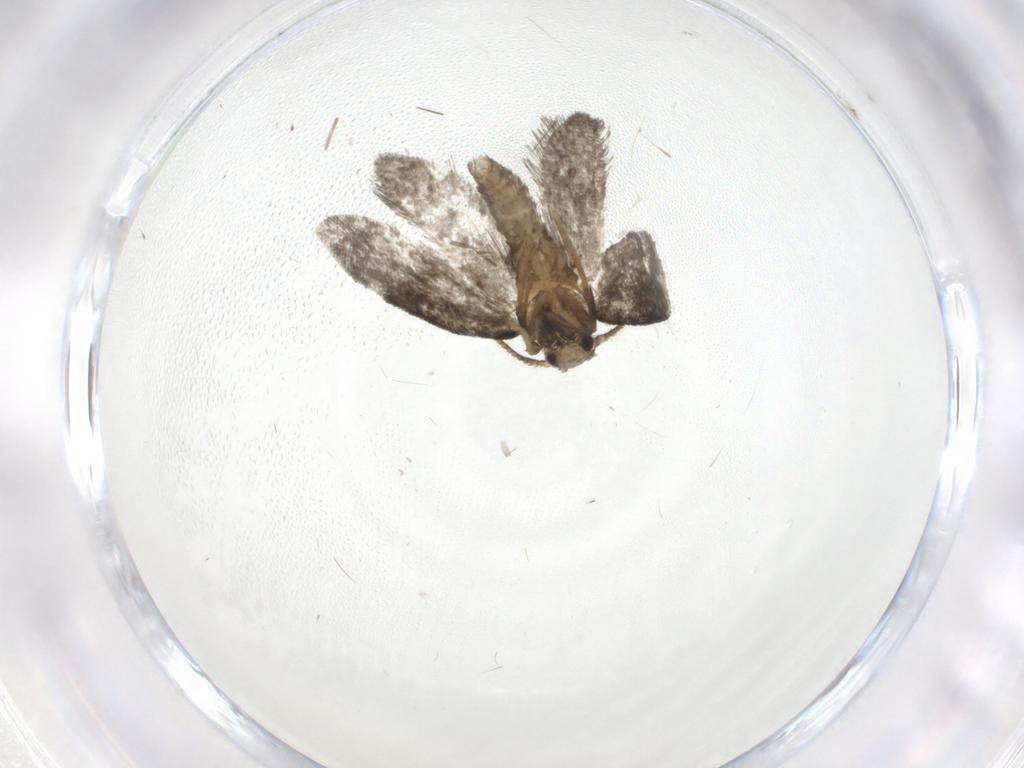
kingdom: Animalia
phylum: Arthropoda
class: Insecta
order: Lepidoptera
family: Psychidae
